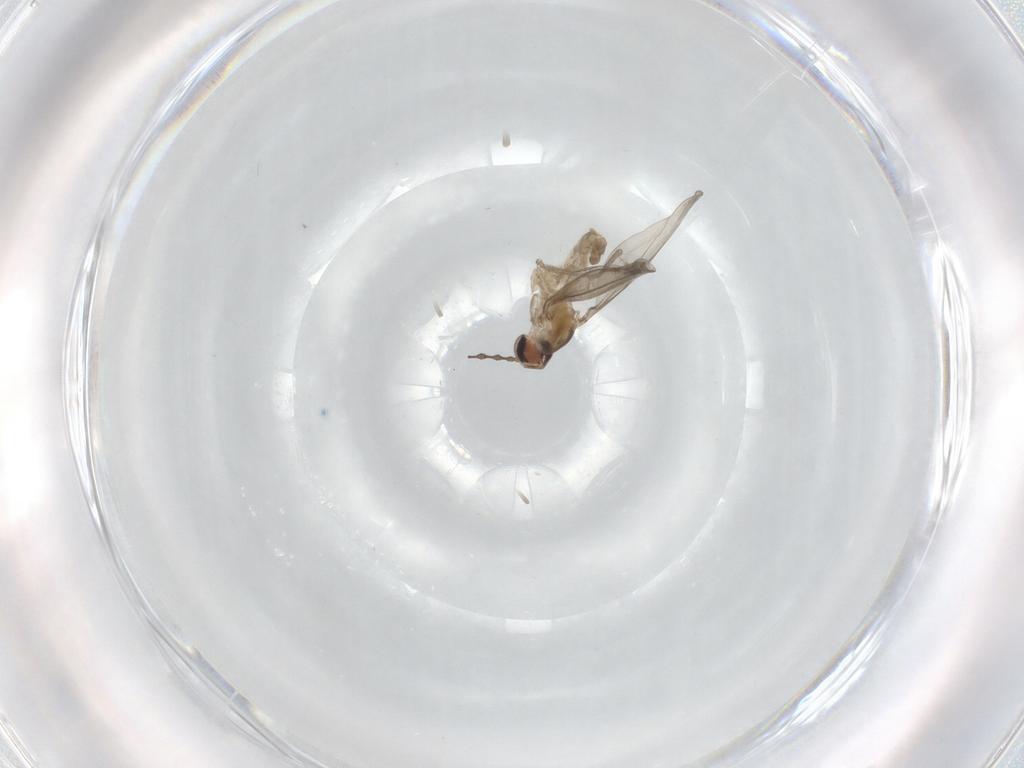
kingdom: Animalia
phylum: Arthropoda
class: Insecta
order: Diptera
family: Cecidomyiidae
